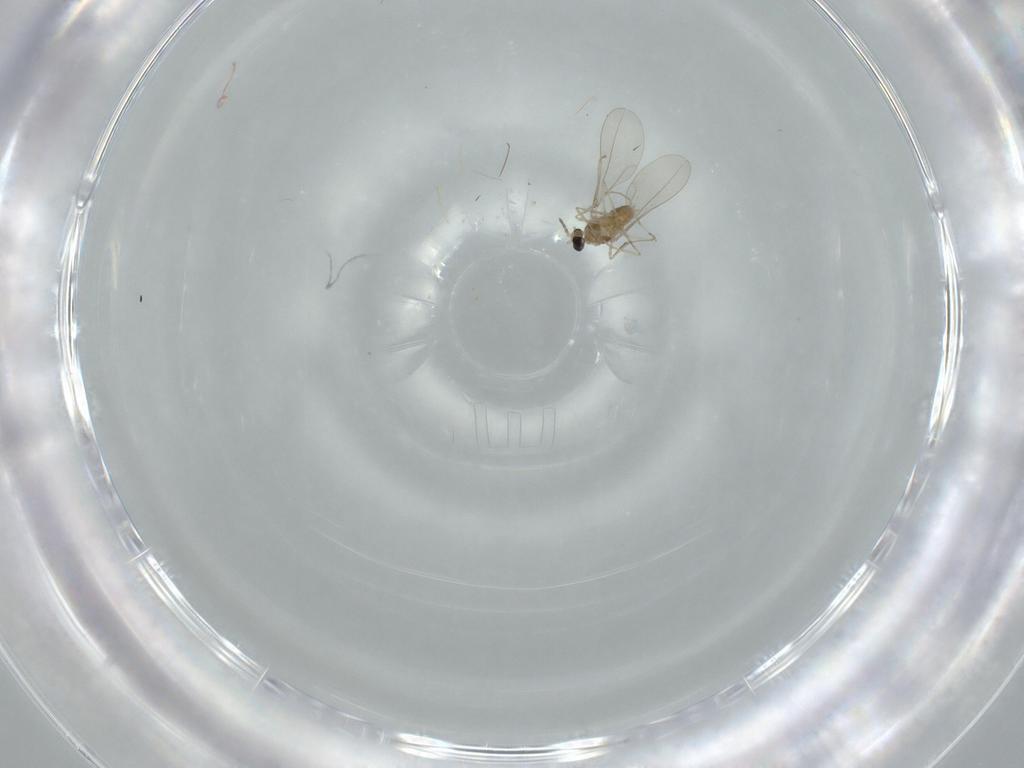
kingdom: Animalia
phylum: Arthropoda
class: Insecta
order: Diptera
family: Cecidomyiidae
